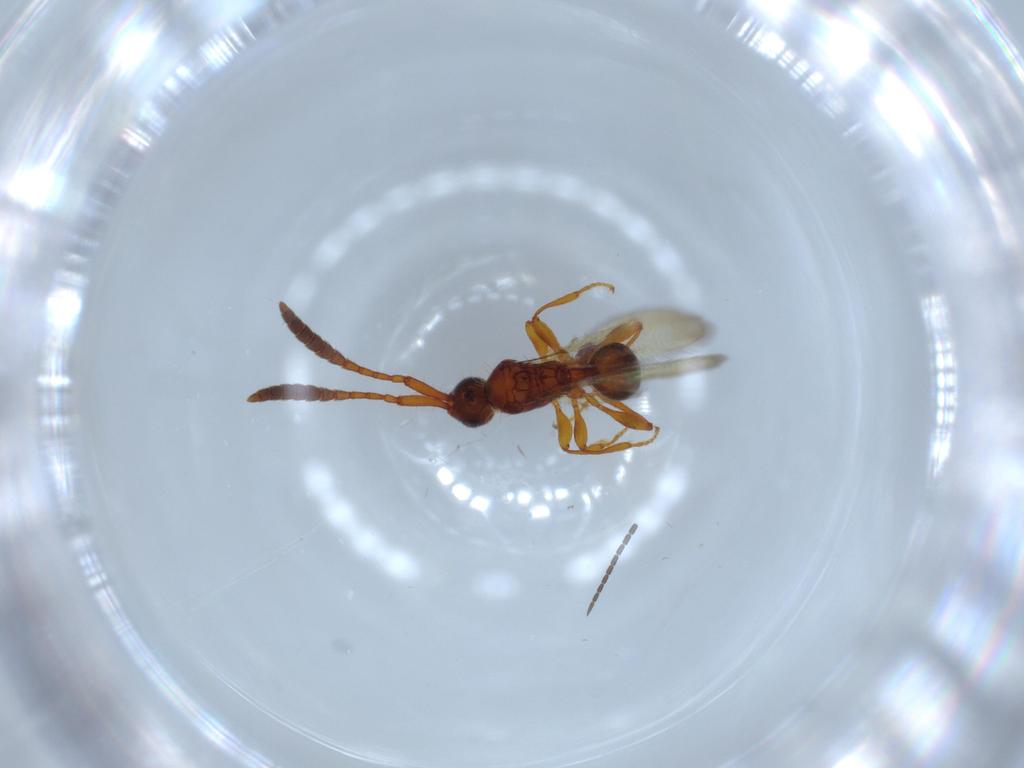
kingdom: Animalia
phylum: Arthropoda
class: Insecta
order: Hymenoptera
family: Diapriidae
